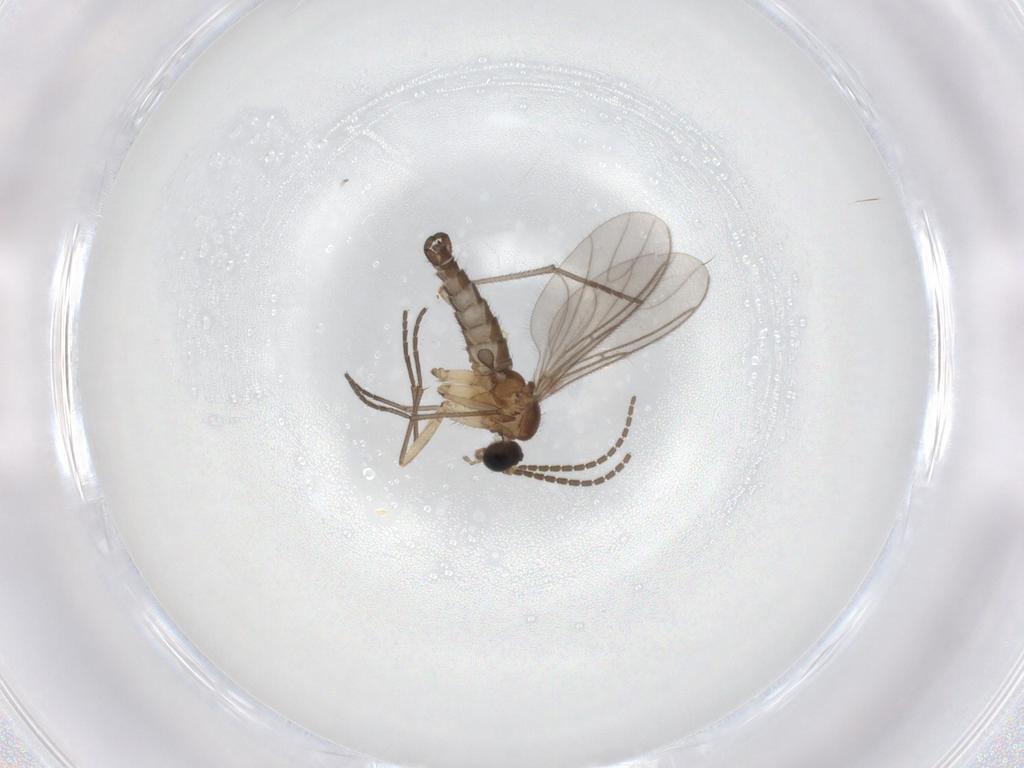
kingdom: Animalia
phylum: Arthropoda
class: Insecta
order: Diptera
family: Sciaridae
